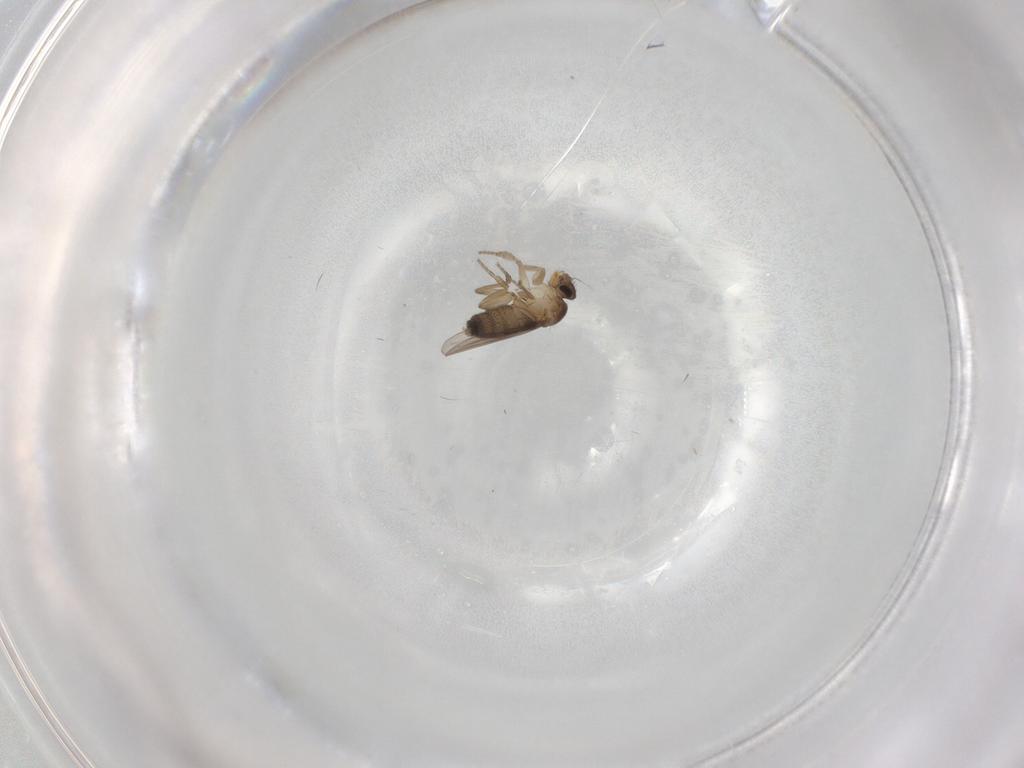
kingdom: Animalia
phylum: Arthropoda
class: Insecta
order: Diptera
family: Phoridae
